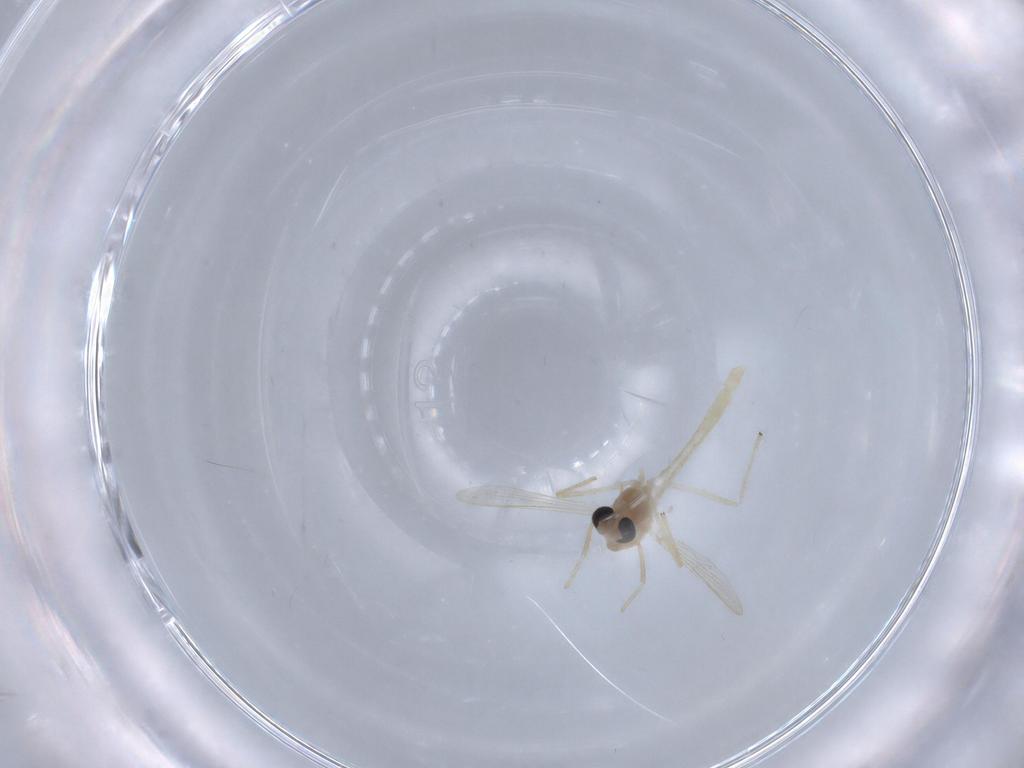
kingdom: Animalia
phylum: Arthropoda
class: Insecta
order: Diptera
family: Chironomidae
